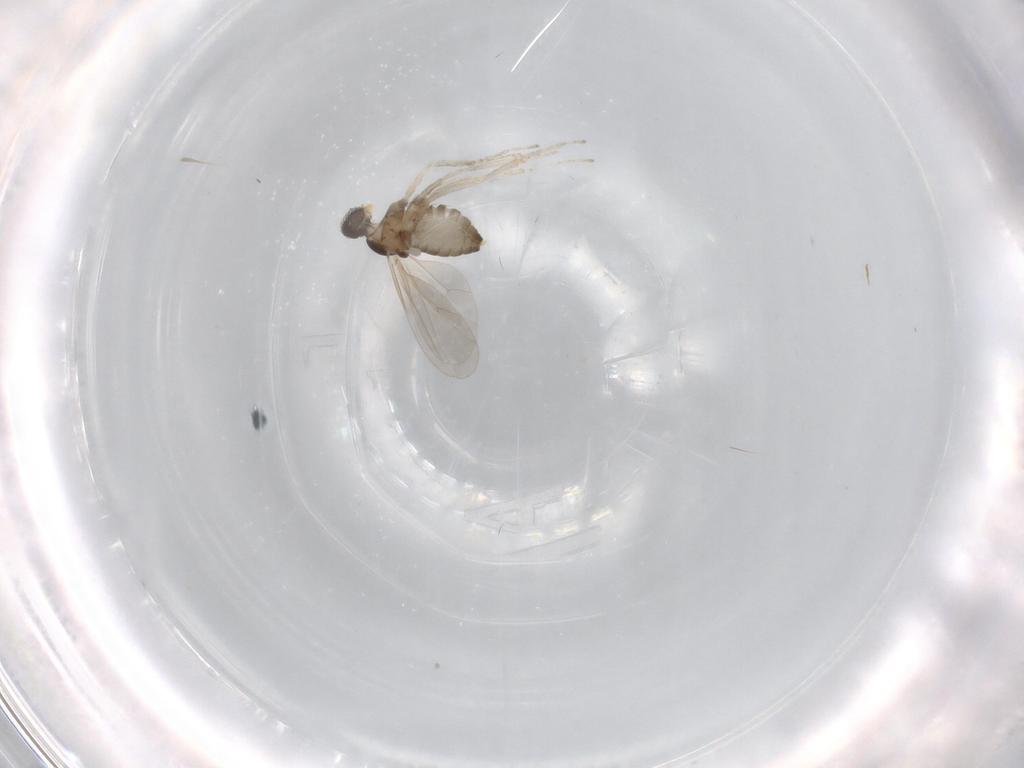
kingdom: Animalia
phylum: Arthropoda
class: Insecta
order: Diptera
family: Cecidomyiidae
